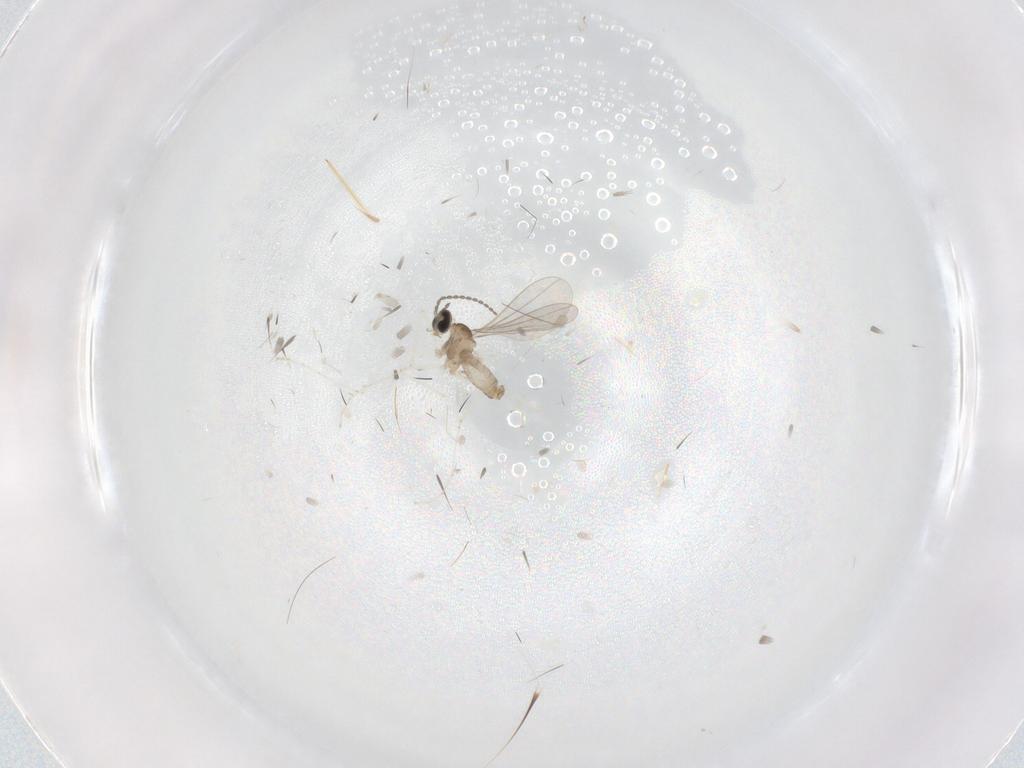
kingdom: Animalia
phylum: Arthropoda
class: Insecta
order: Diptera
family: Cecidomyiidae
